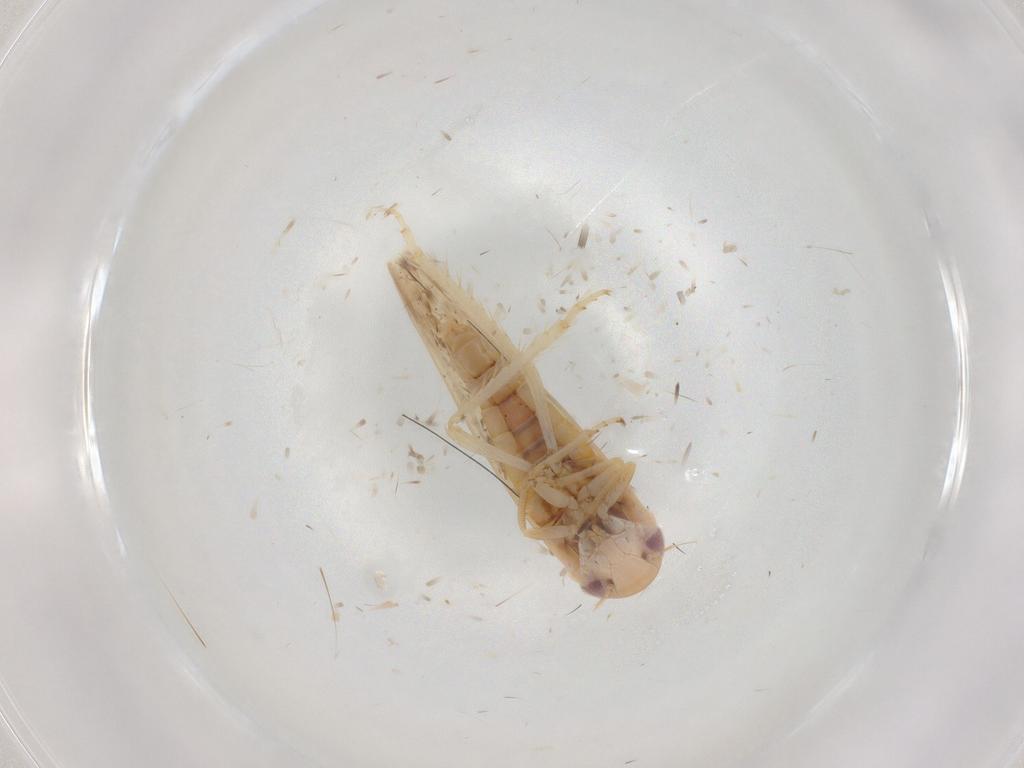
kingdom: Animalia
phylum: Arthropoda
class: Insecta
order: Hemiptera
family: Cicadellidae
